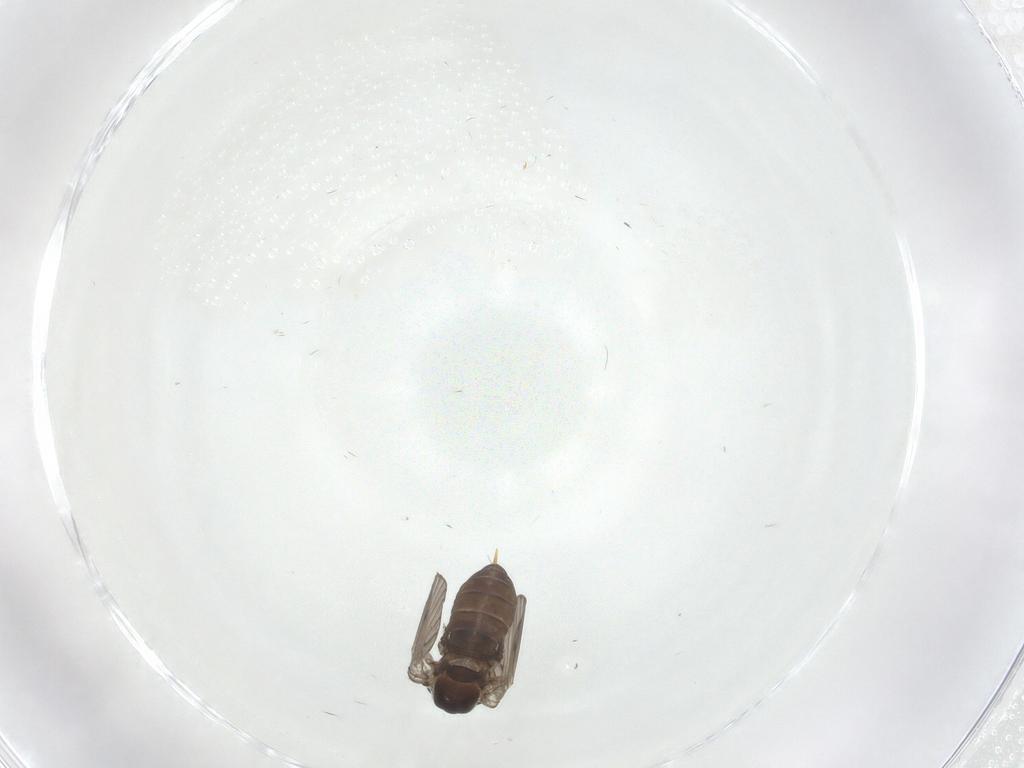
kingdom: Animalia
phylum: Arthropoda
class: Insecta
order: Diptera
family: Psychodidae
